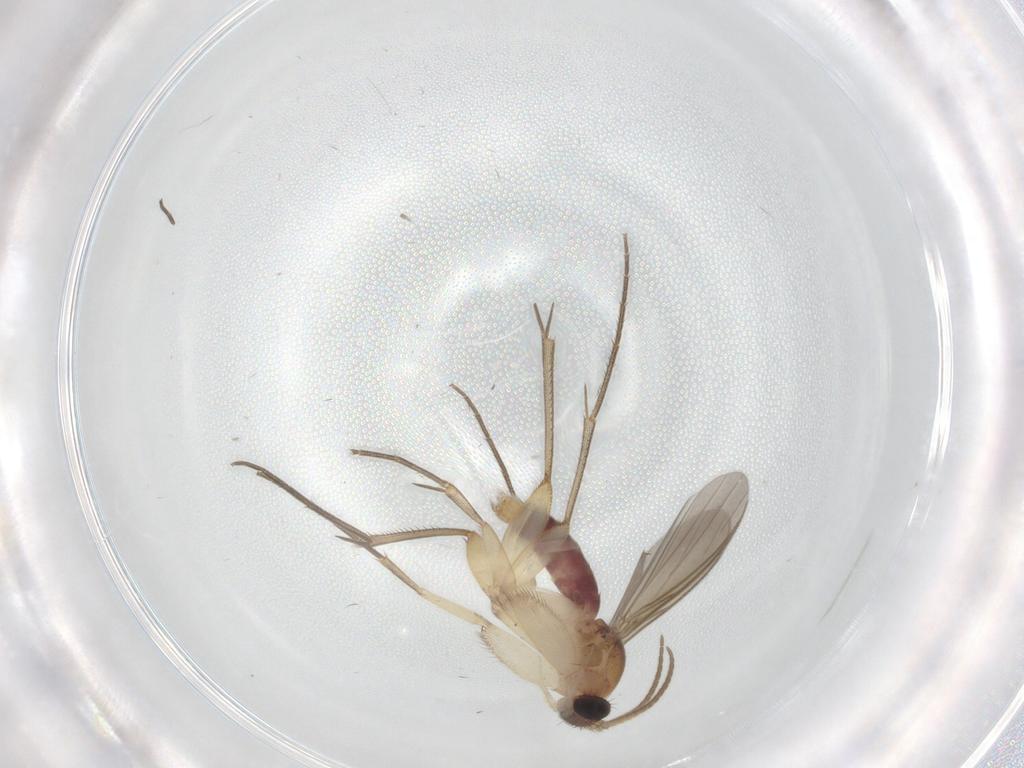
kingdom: Animalia
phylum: Arthropoda
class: Insecta
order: Diptera
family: Mycetophilidae
